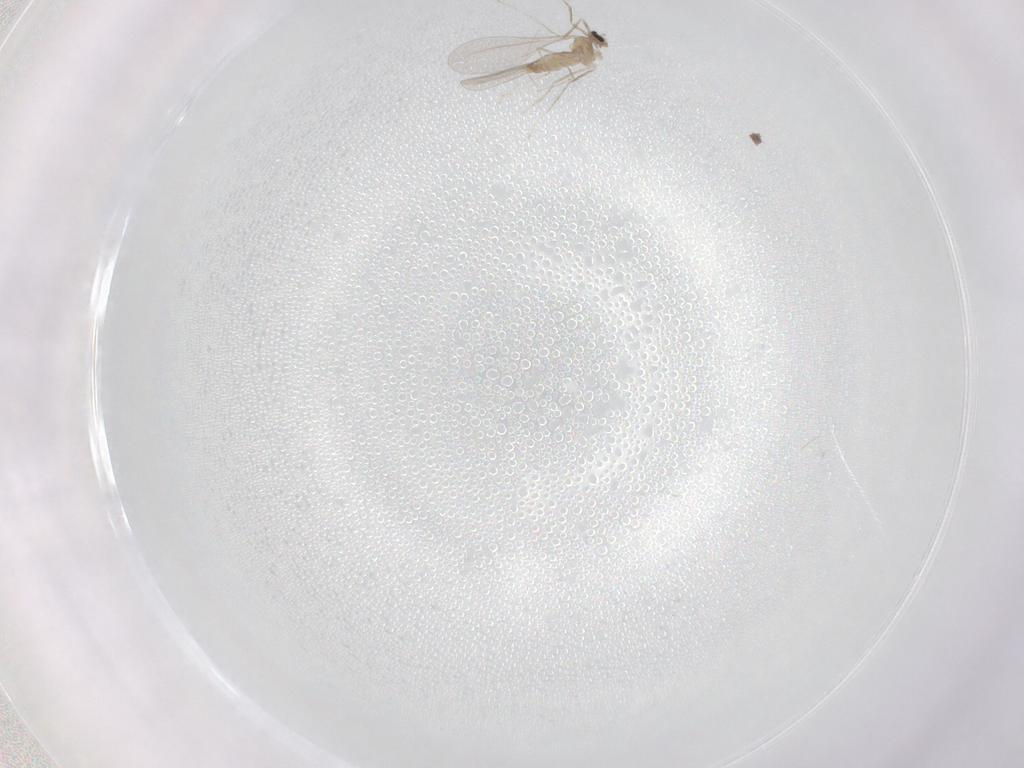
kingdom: Animalia
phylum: Arthropoda
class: Insecta
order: Diptera
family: Cecidomyiidae
